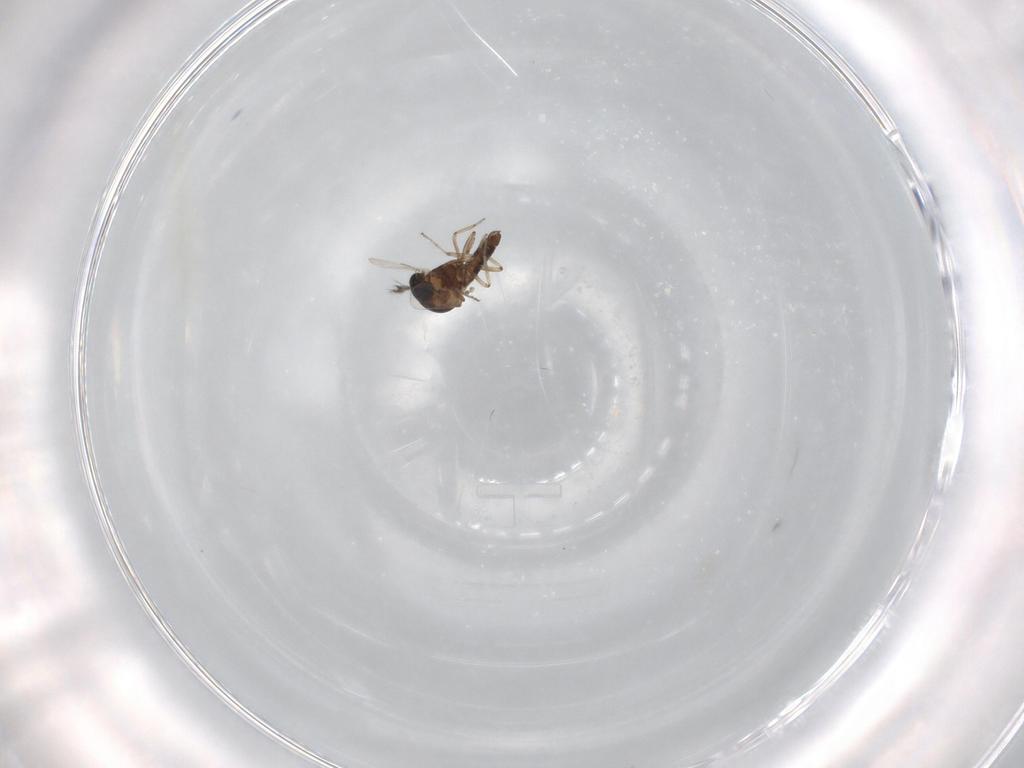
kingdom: Animalia
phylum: Arthropoda
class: Insecta
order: Diptera
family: Ceratopogonidae
